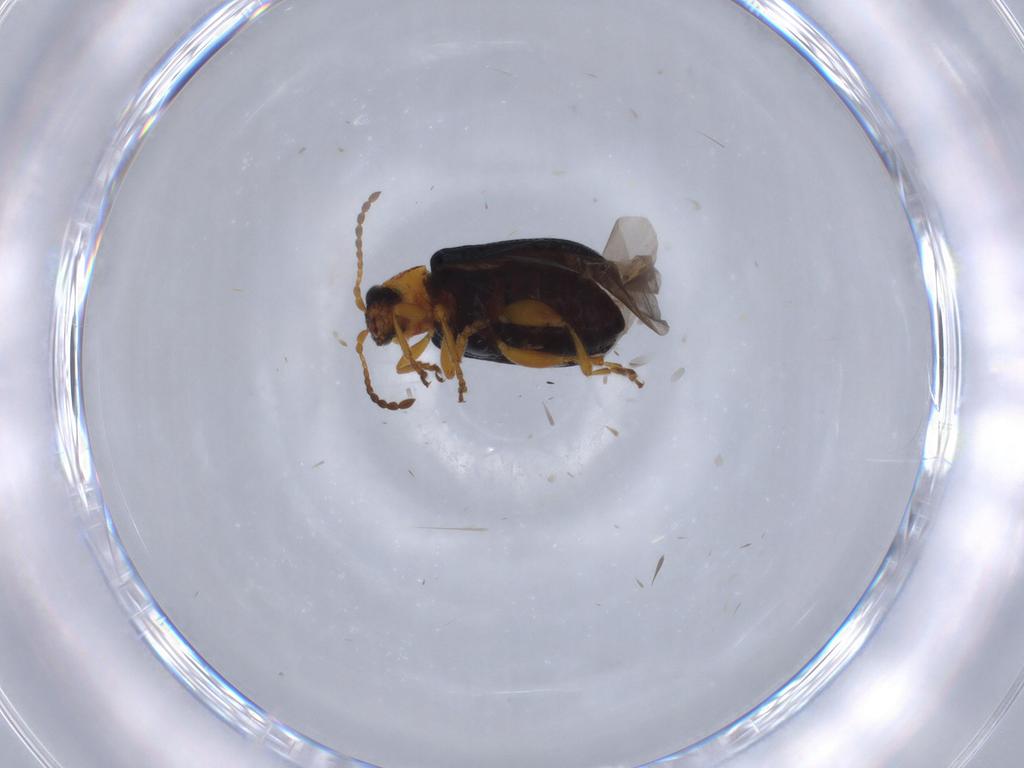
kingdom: Animalia
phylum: Arthropoda
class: Insecta
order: Coleoptera
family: Chrysomelidae
